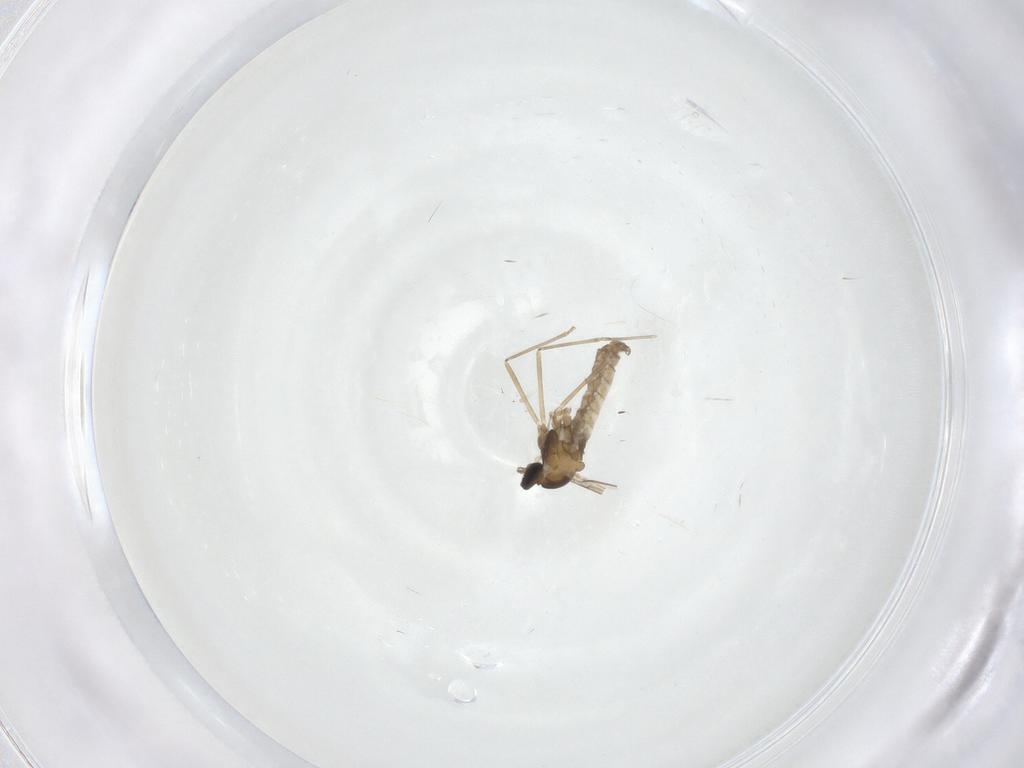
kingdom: Animalia
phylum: Arthropoda
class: Insecta
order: Diptera
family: Cecidomyiidae
